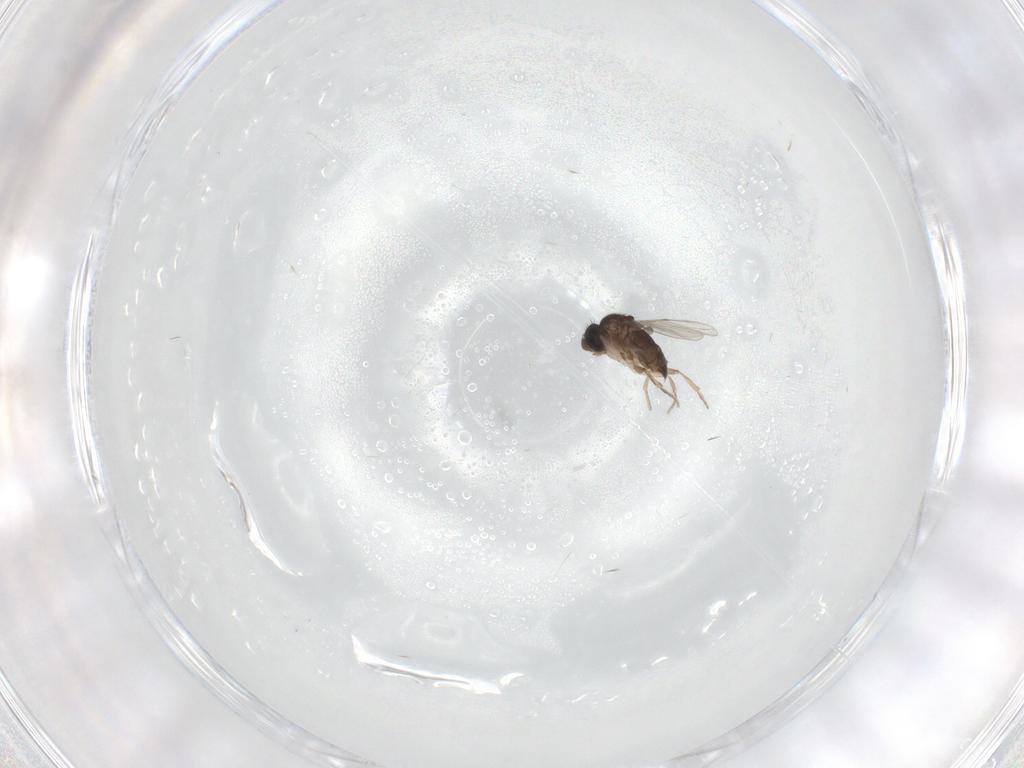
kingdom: Animalia
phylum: Arthropoda
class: Insecta
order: Diptera
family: Phoridae
